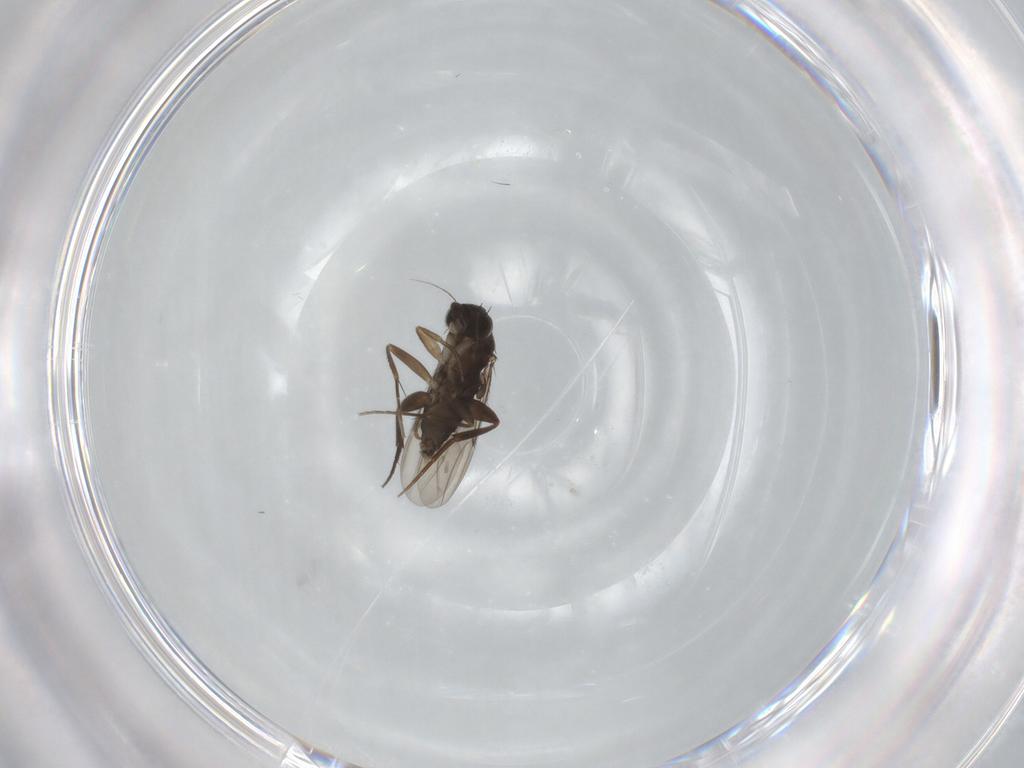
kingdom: Animalia
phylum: Arthropoda
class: Insecta
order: Diptera
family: Phoridae
